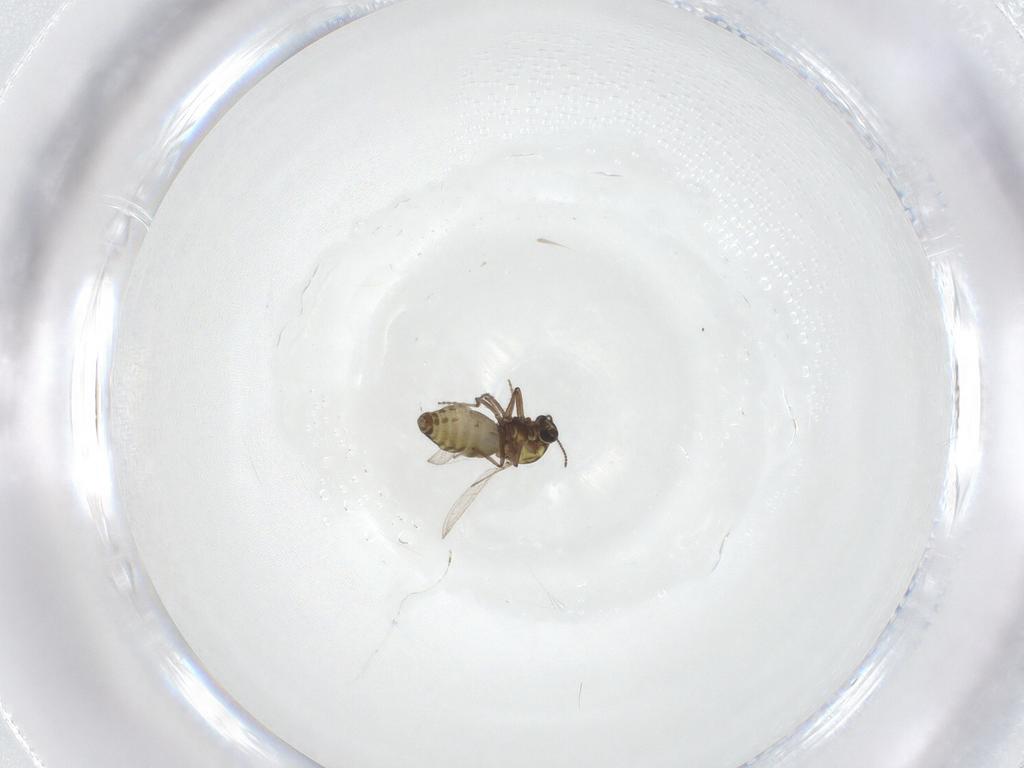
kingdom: Animalia
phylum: Arthropoda
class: Insecta
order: Diptera
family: Ceratopogonidae
